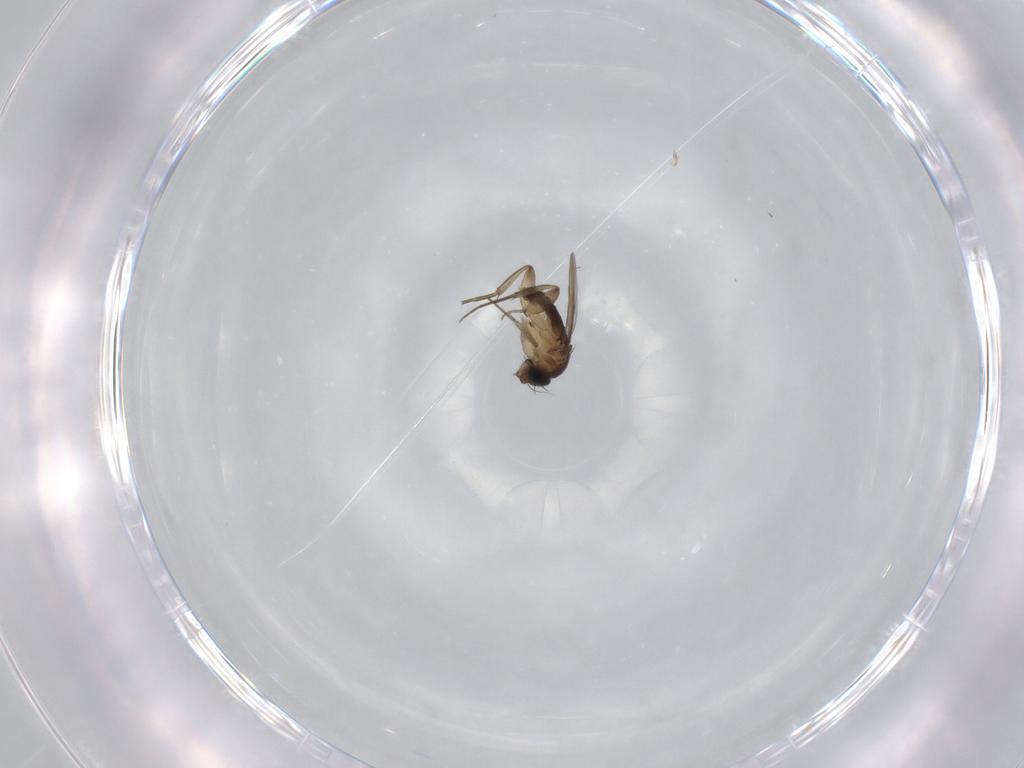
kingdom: Animalia
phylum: Arthropoda
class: Insecta
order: Diptera
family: Phoridae
